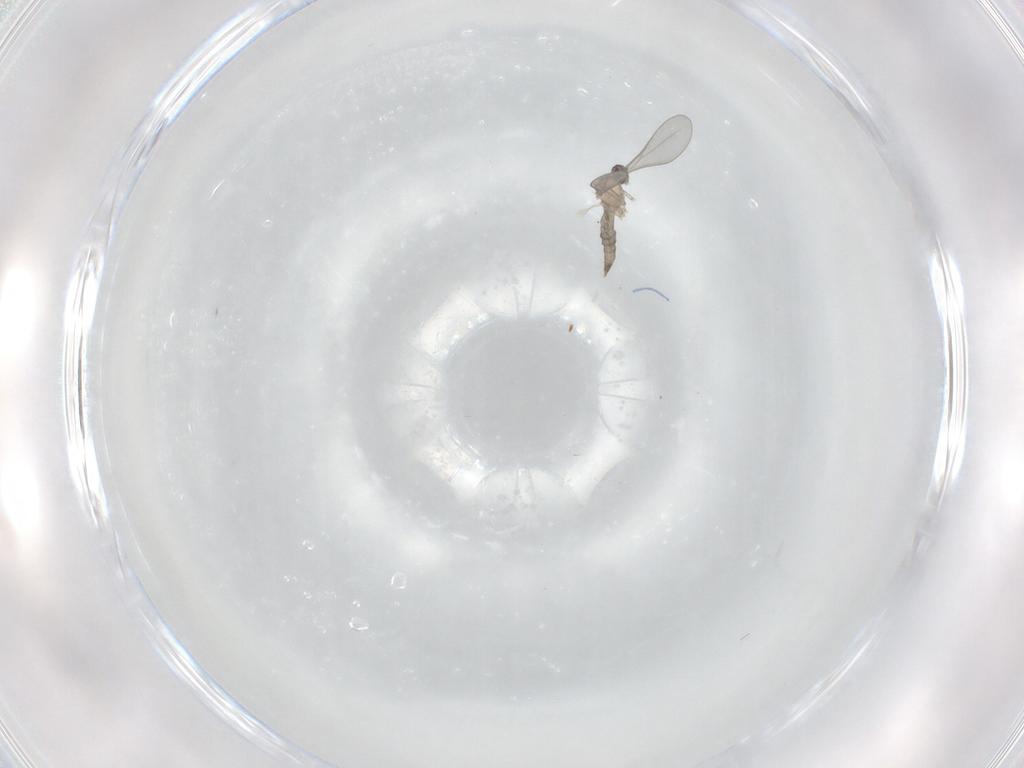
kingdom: Animalia
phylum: Arthropoda
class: Insecta
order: Diptera
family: Cecidomyiidae
